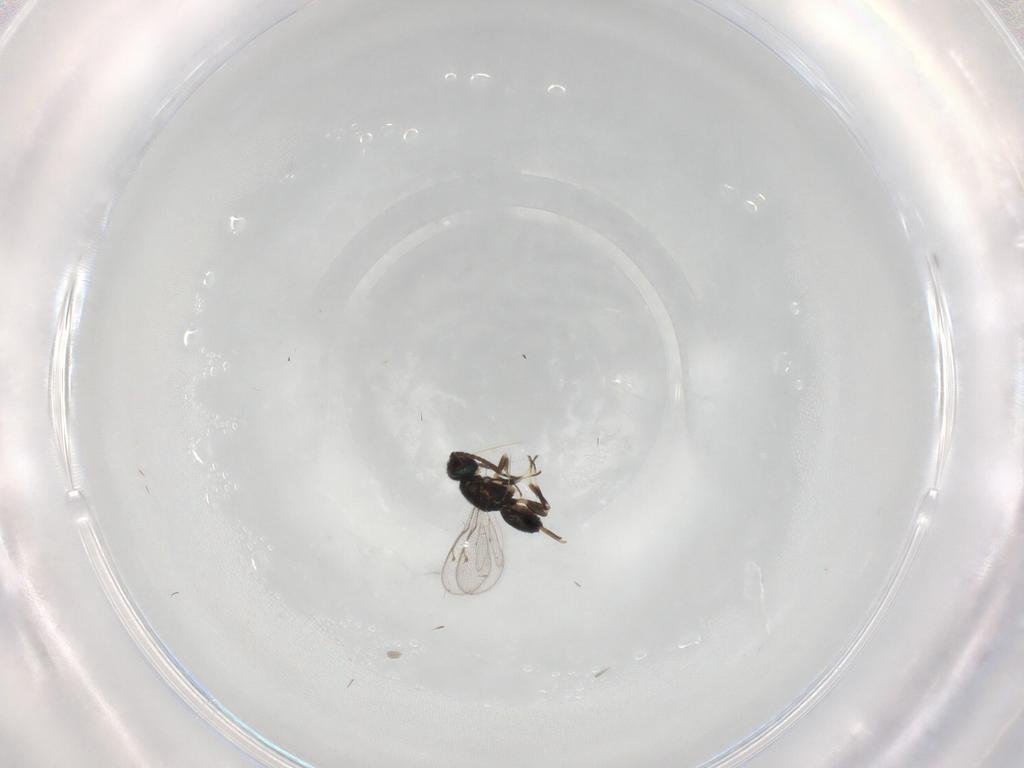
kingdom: Animalia
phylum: Arthropoda
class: Insecta
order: Hymenoptera
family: Eupelmidae
